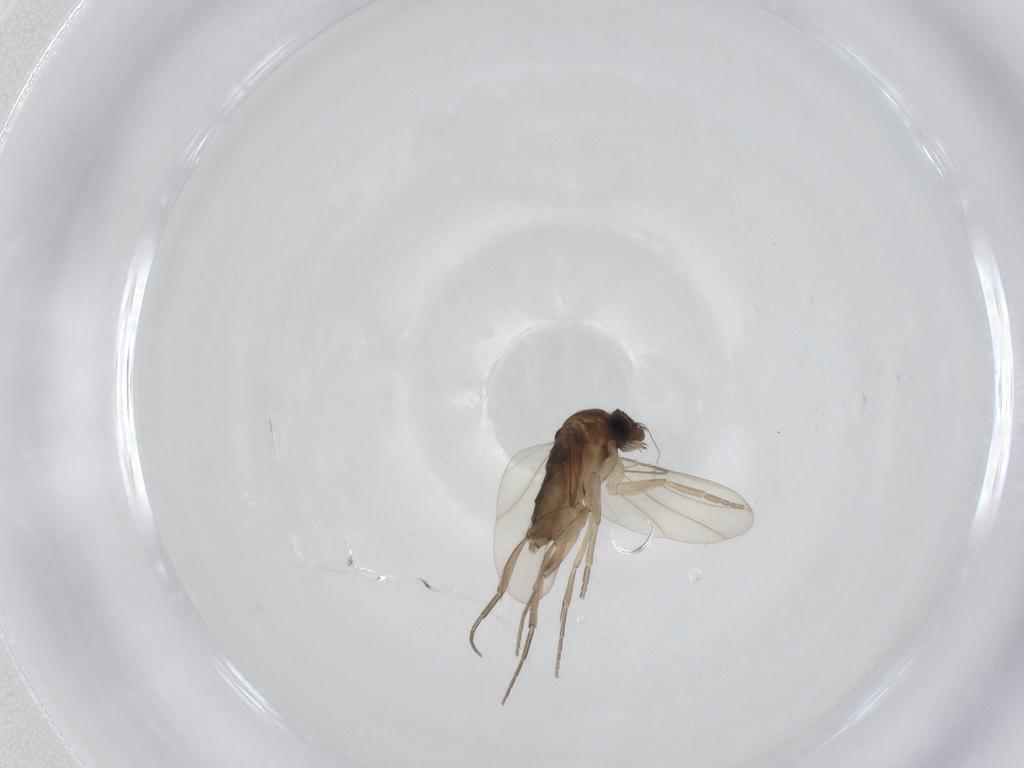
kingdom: Animalia
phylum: Arthropoda
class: Insecta
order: Diptera
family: Phoridae
